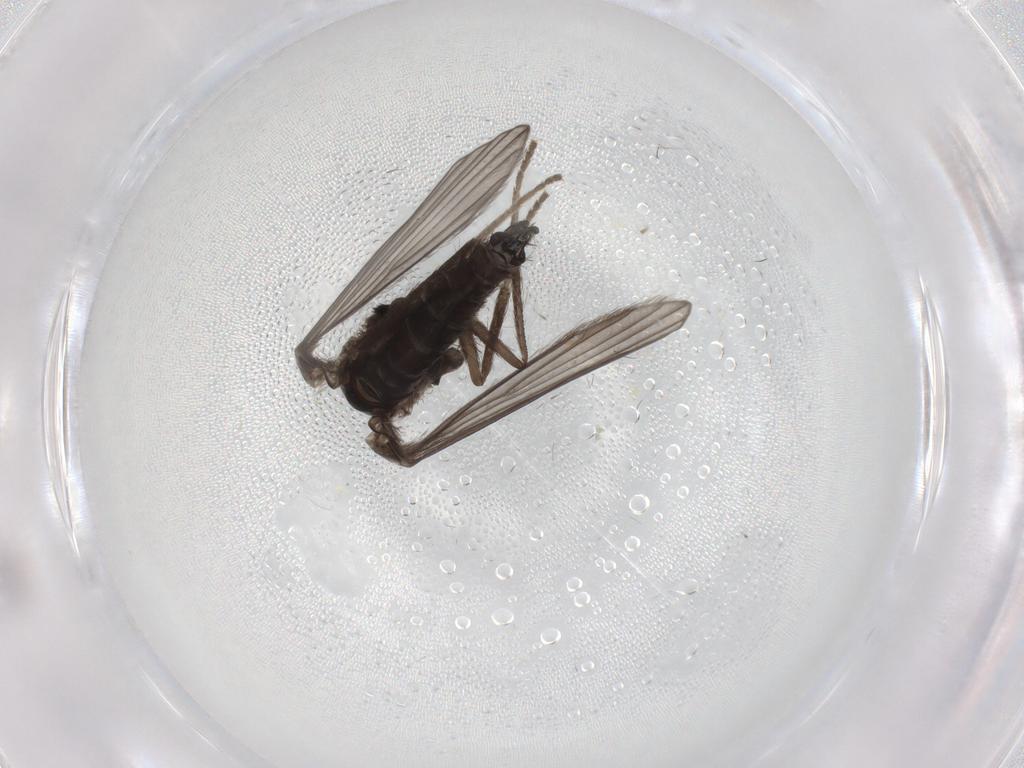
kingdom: Animalia
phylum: Arthropoda
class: Insecta
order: Diptera
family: Psychodidae
